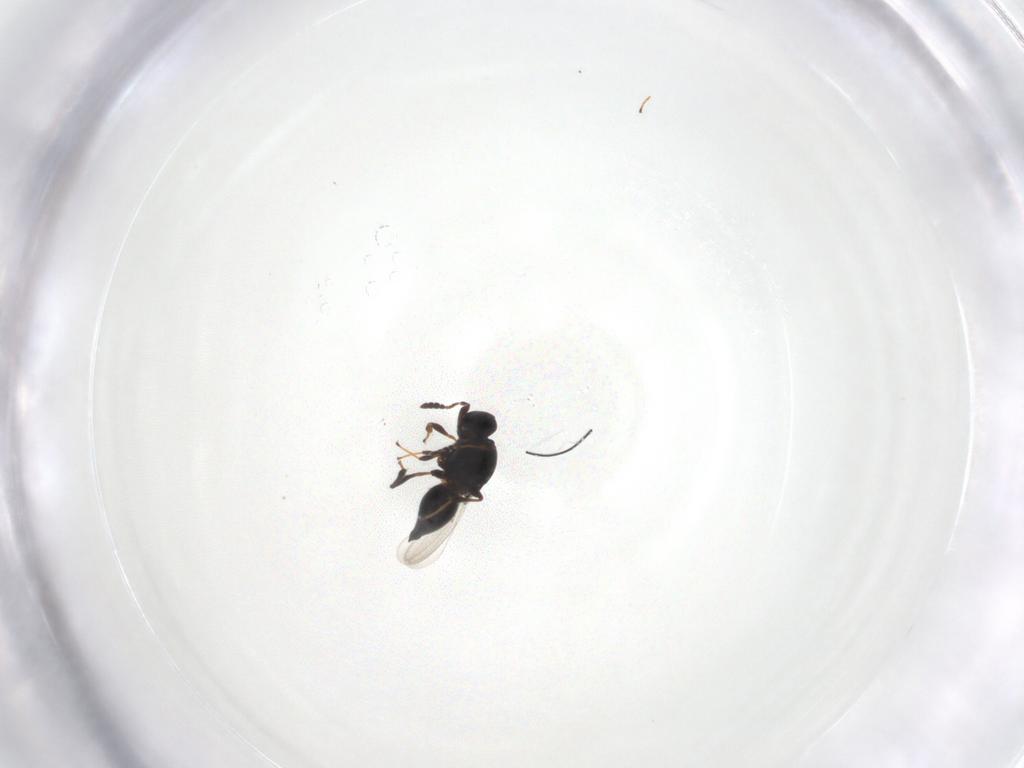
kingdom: Animalia
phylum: Arthropoda
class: Insecta
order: Hymenoptera
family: Platygastridae
